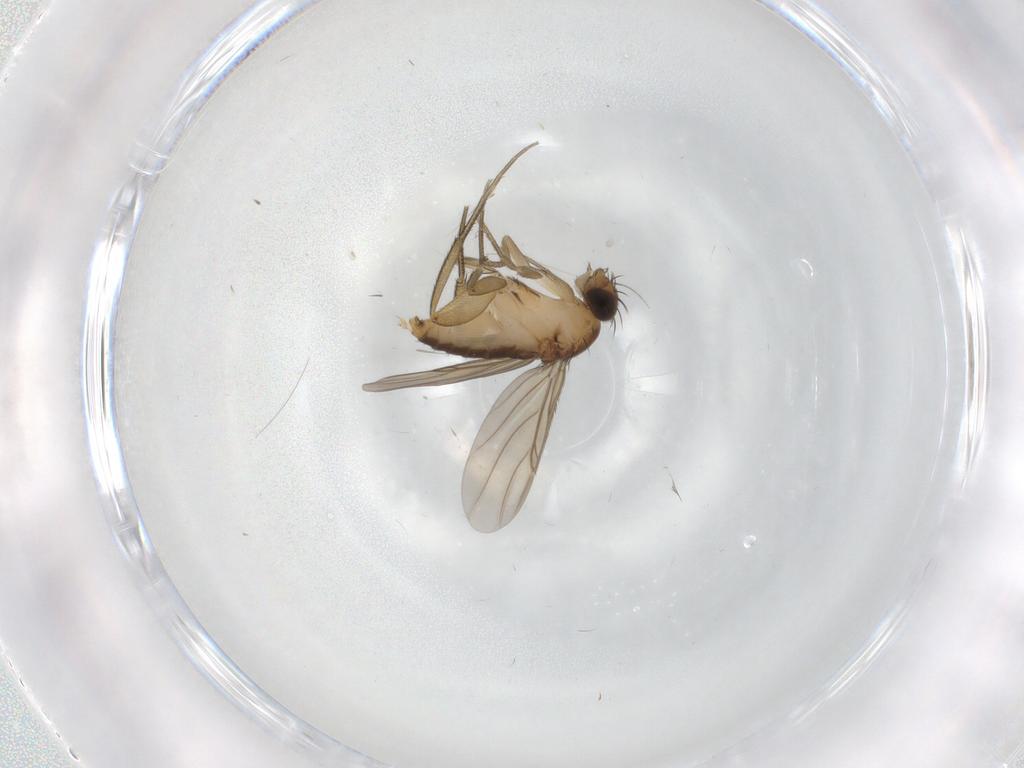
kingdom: Animalia
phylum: Arthropoda
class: Insecta
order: Diptera
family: Phoridae
